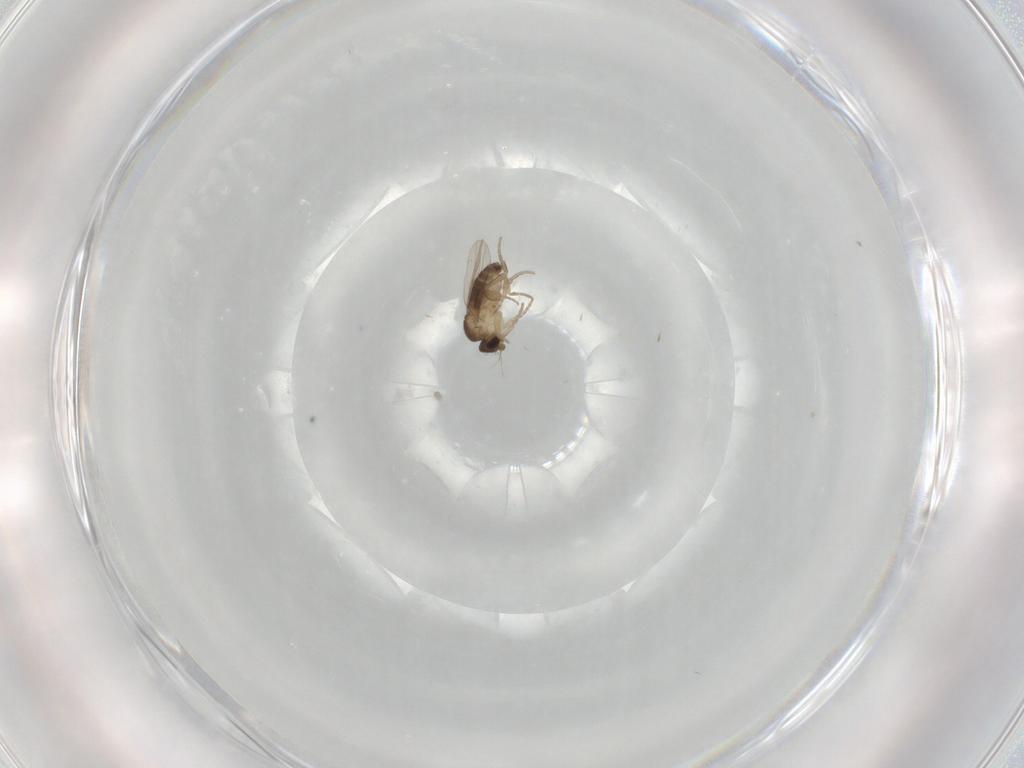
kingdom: Animalia
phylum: Arthropoda
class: Insecta
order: Diptera
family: Phoridae
